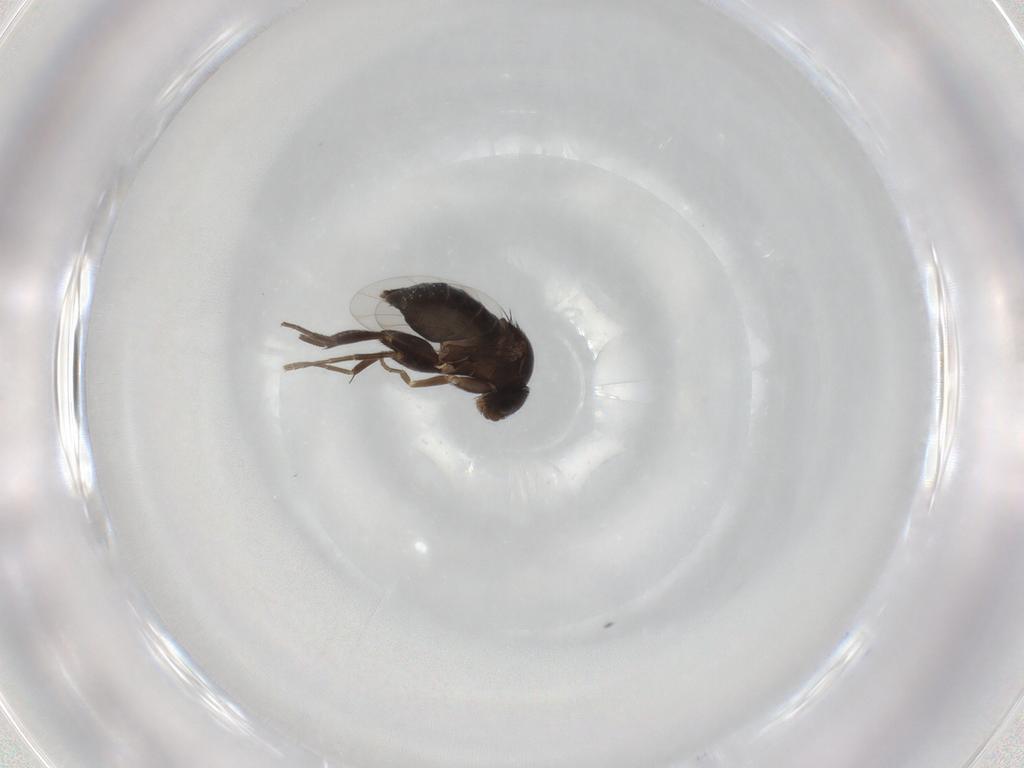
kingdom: Animalia
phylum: Arthropoda
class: Insecta
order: Diptera
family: Phoridae
